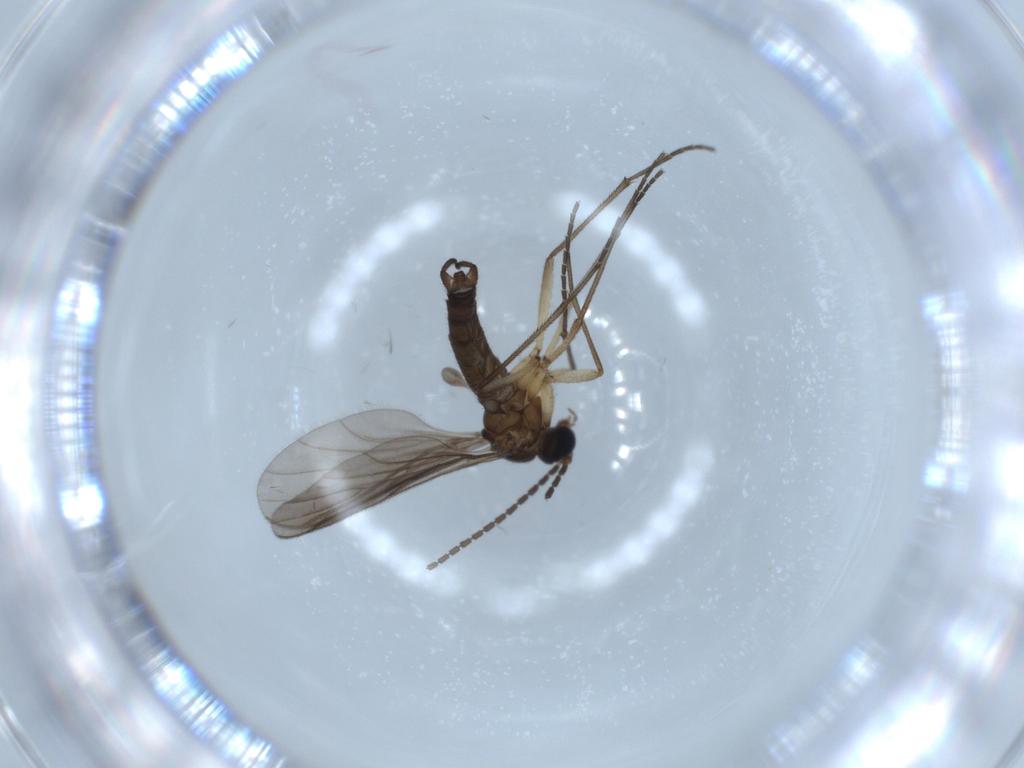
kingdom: Animalia
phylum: Arthropoda
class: Insecta
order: Diptera
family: Sciaridae
